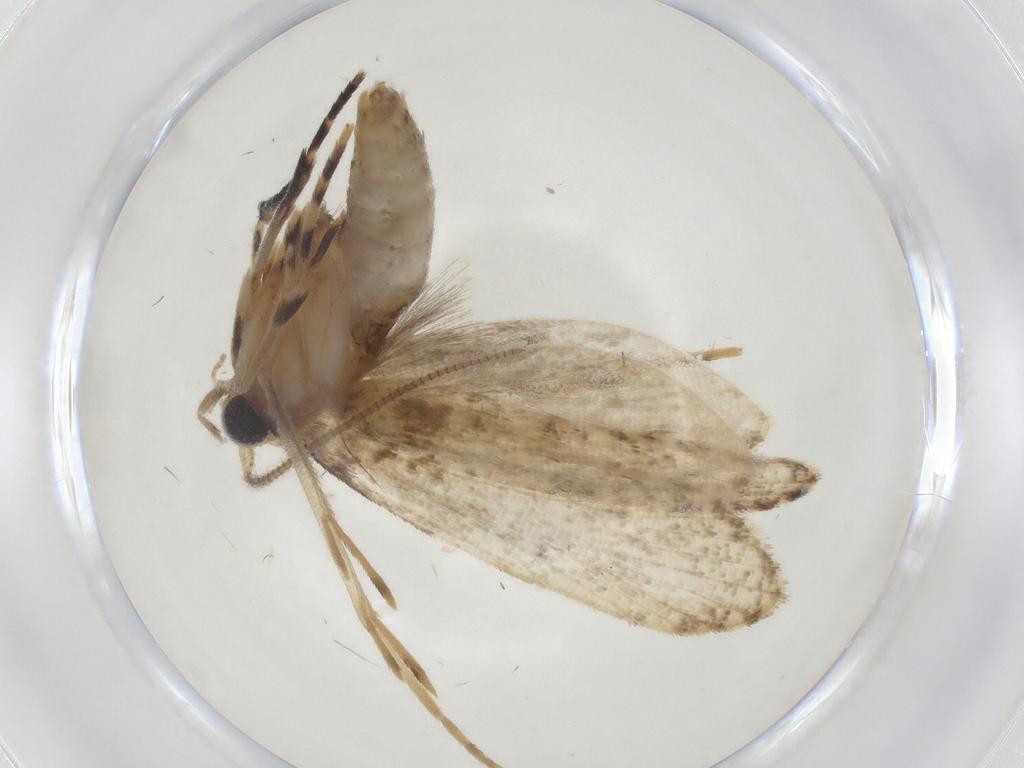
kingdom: Animalia
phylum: Arthropoda
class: Insecta
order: Lepidoptera
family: Tineidae
